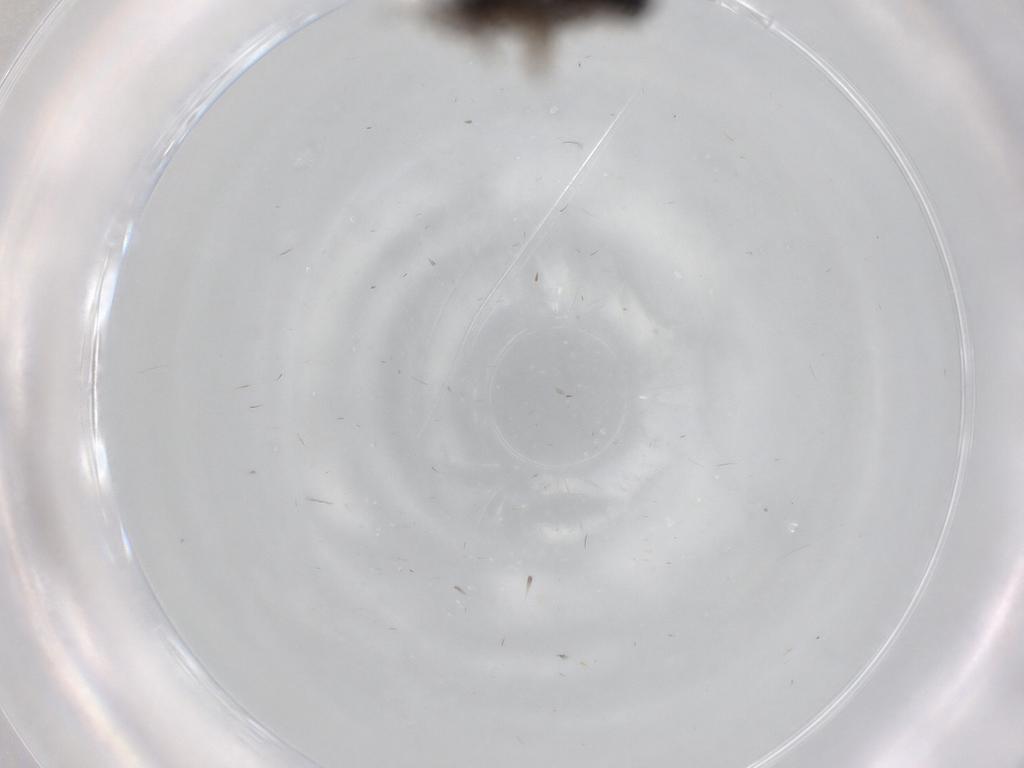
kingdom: Animalia
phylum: Arthropoda
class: Insecta
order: Diptera
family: Phoridae
